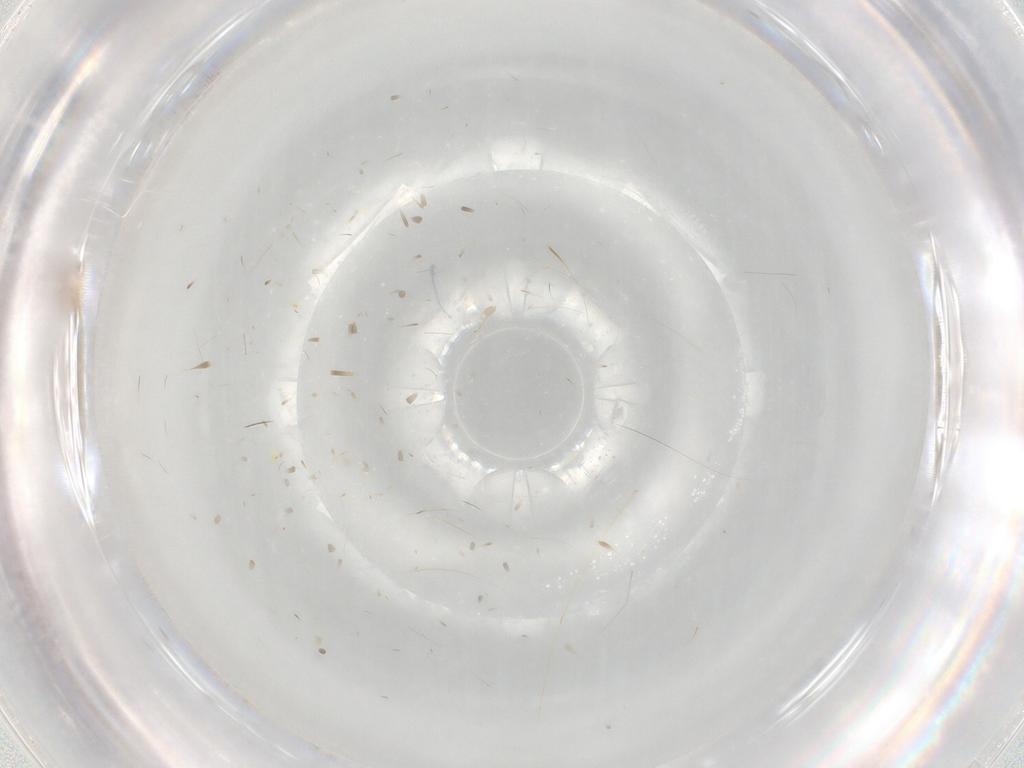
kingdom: Animalia
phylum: Arthropoda
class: Insecta
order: Hymenoptera
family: Mymaridae
